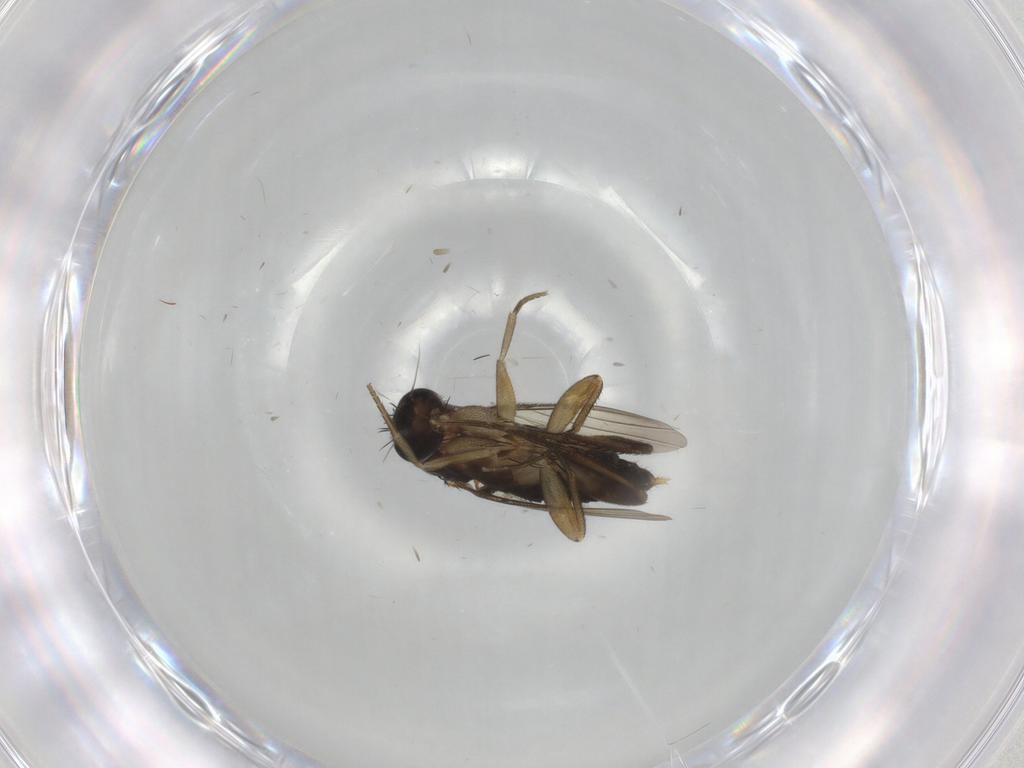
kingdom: Animalia
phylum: Arthropoda
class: Insecta
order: Diptera
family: Phoridae
